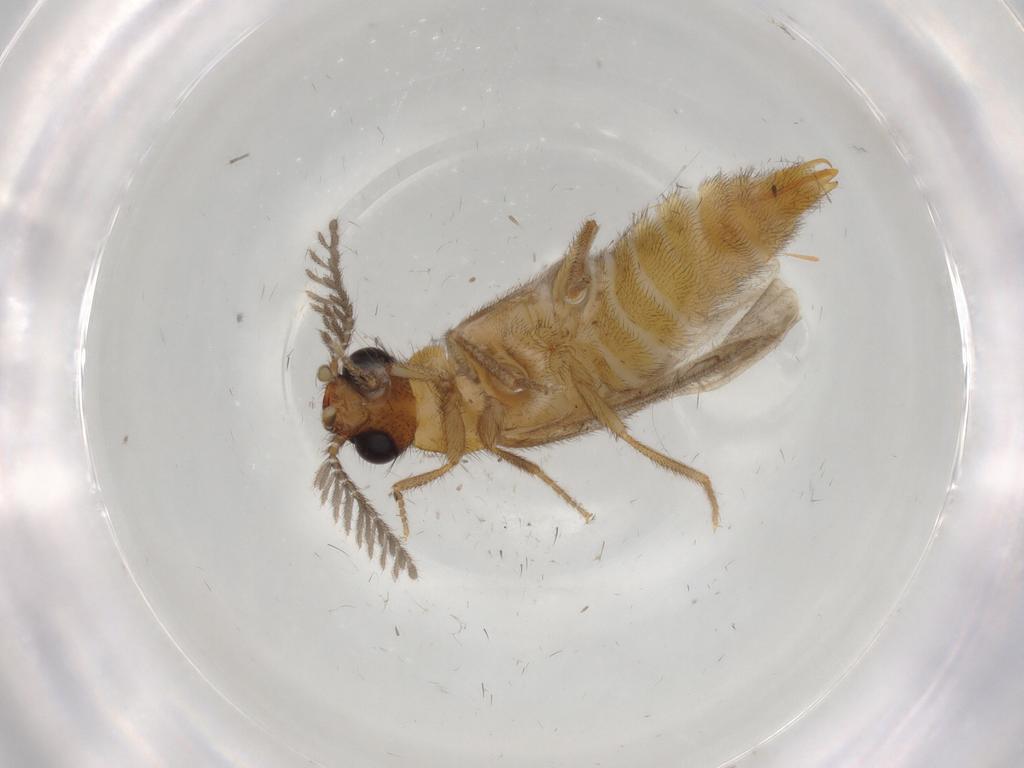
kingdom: Animalia
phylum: Arthropoda
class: Insecta
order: Coleoptera
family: Phengodidae
